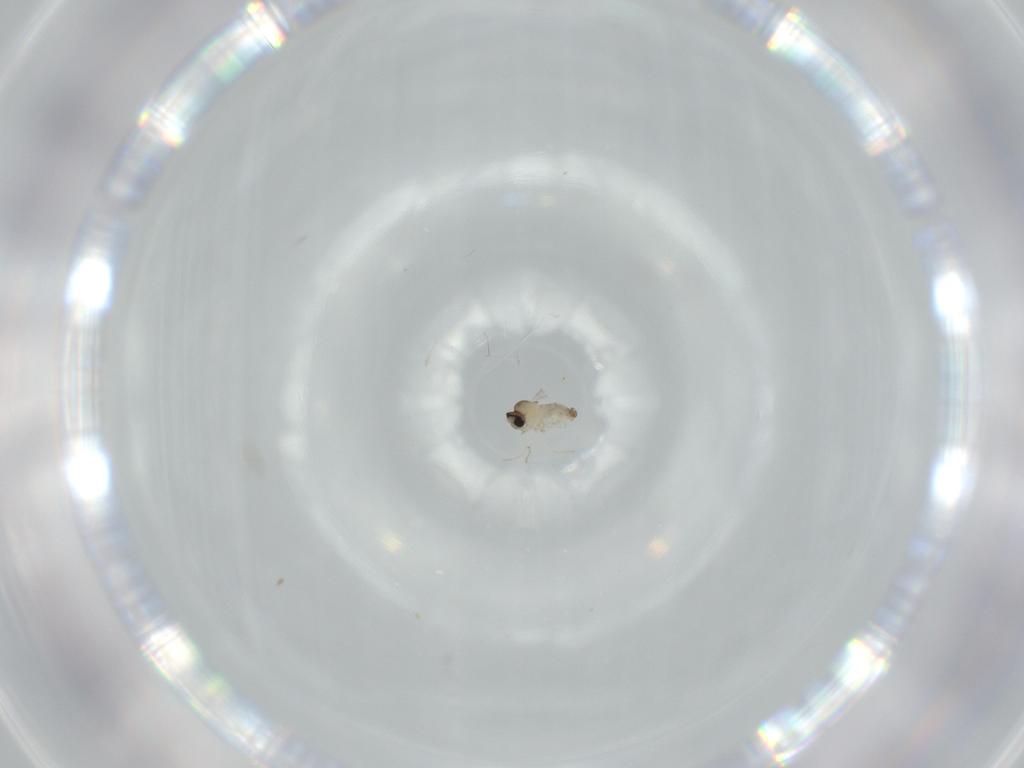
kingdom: Animalia
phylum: Arthropoda
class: Insecta
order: Diptera
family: Cecidomyiidae
